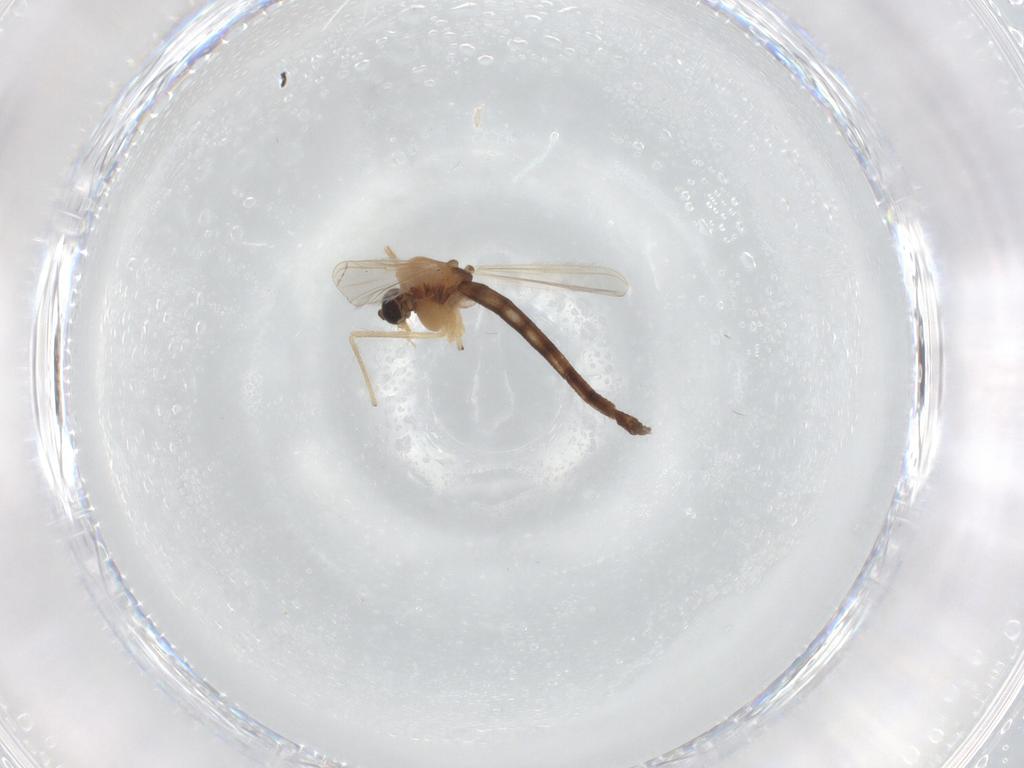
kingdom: Animalia
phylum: Arthropoda
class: Insecta
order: Diptera
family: Chironomidae
